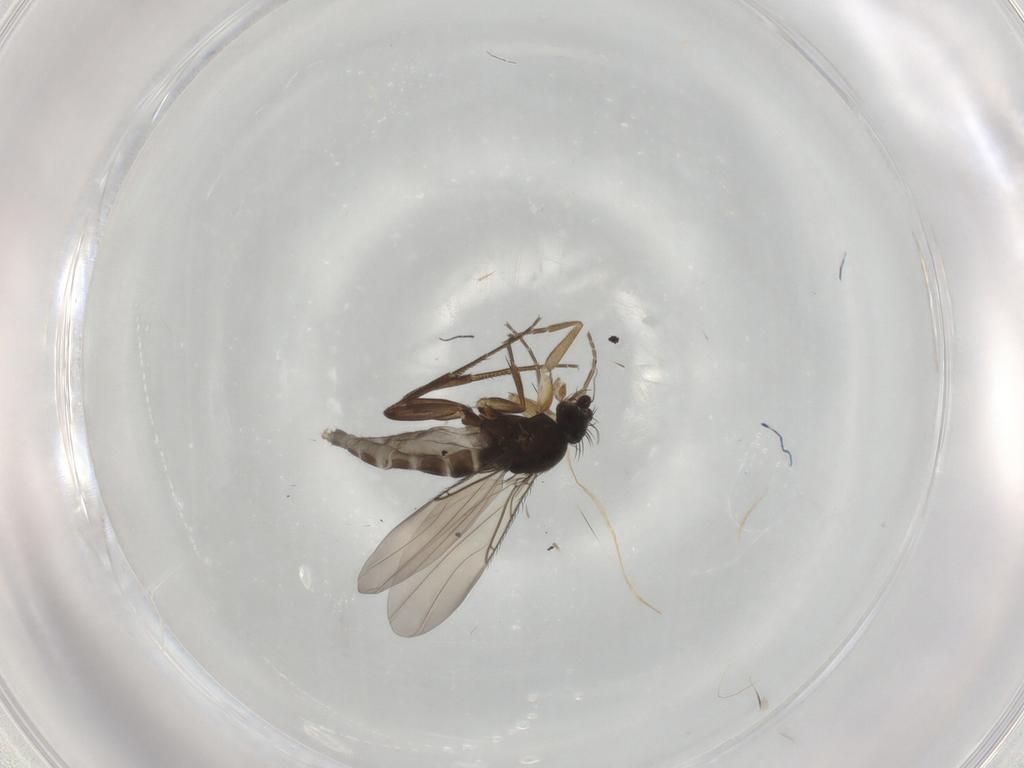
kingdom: Animalia
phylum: Arthropoda
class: Insecta
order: Diptera
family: Phoridae
